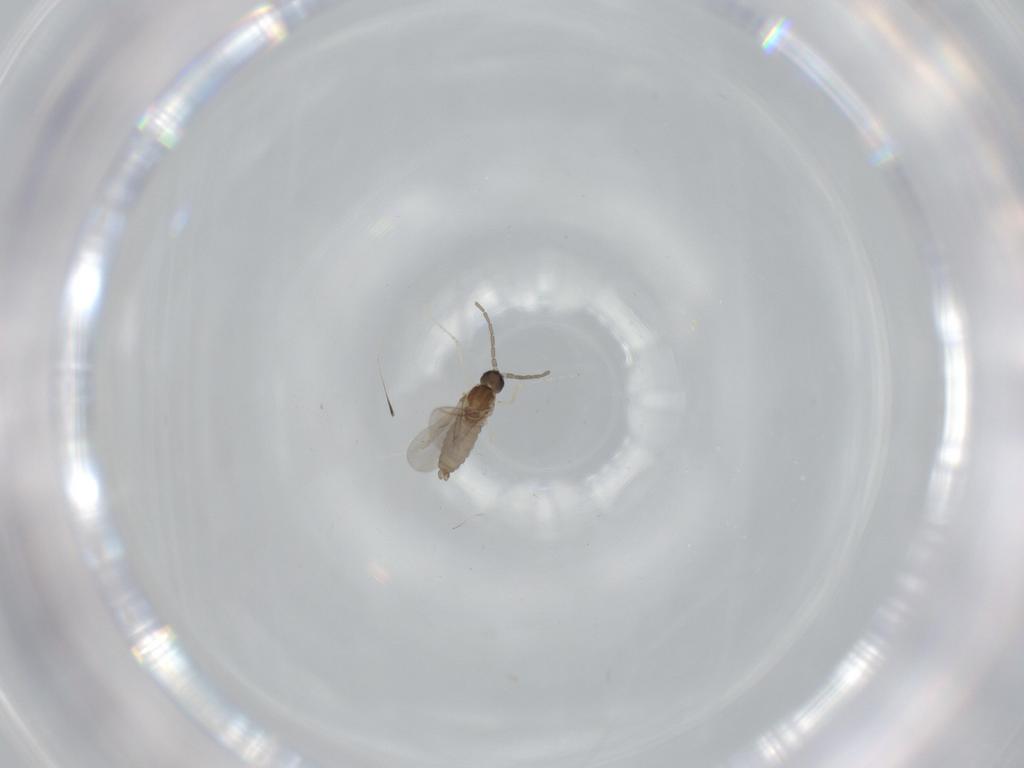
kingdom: Animalia
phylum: Arthropoda
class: Insecta
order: Diptera
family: Cecidomyiidae
